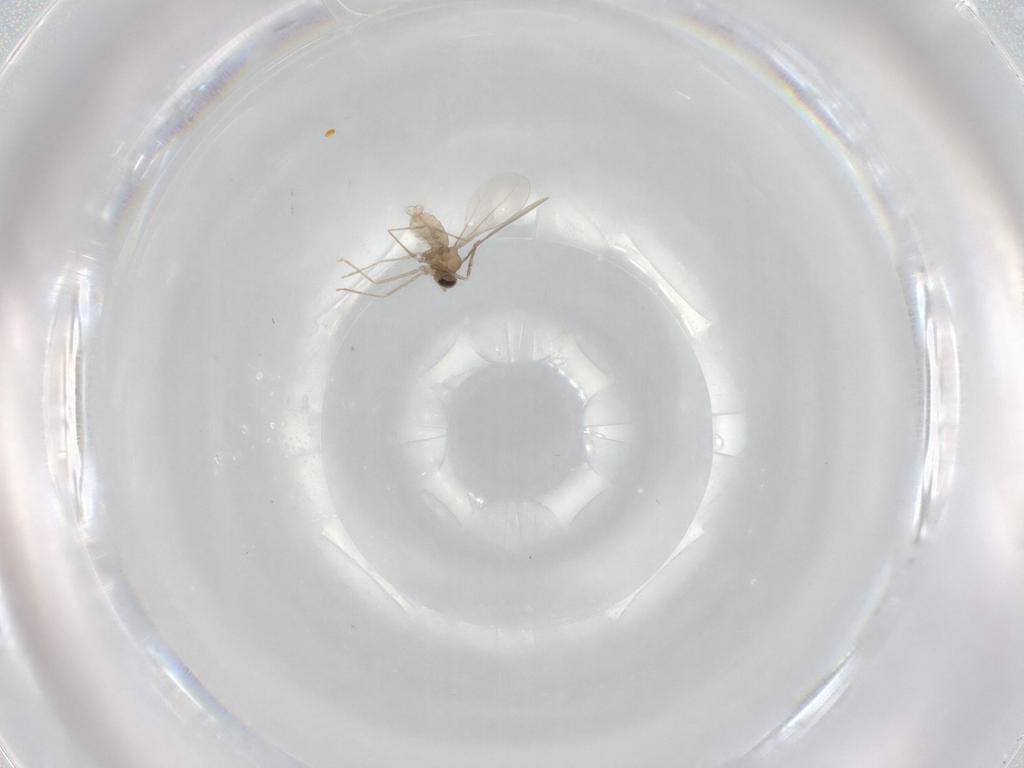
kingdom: Animalia
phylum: Arthropoda
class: Insecta
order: Diptera
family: Cecidomyiidae
